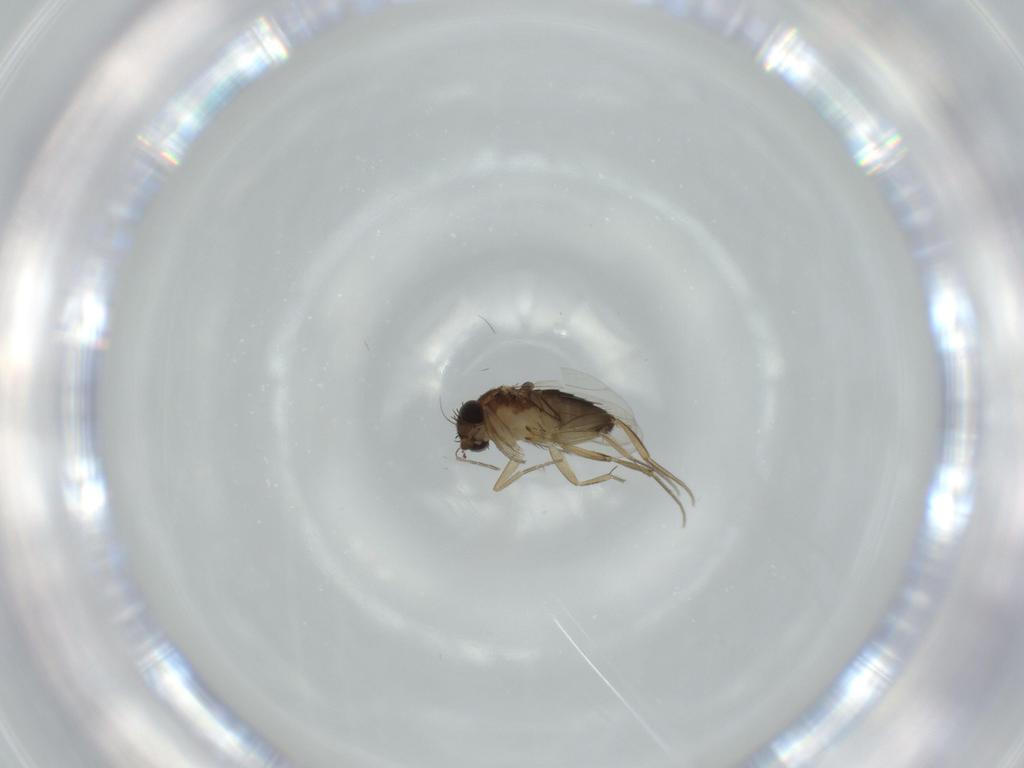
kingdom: Animalia
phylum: Arthropoda
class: Insecta
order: Diptera
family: Phoridae
